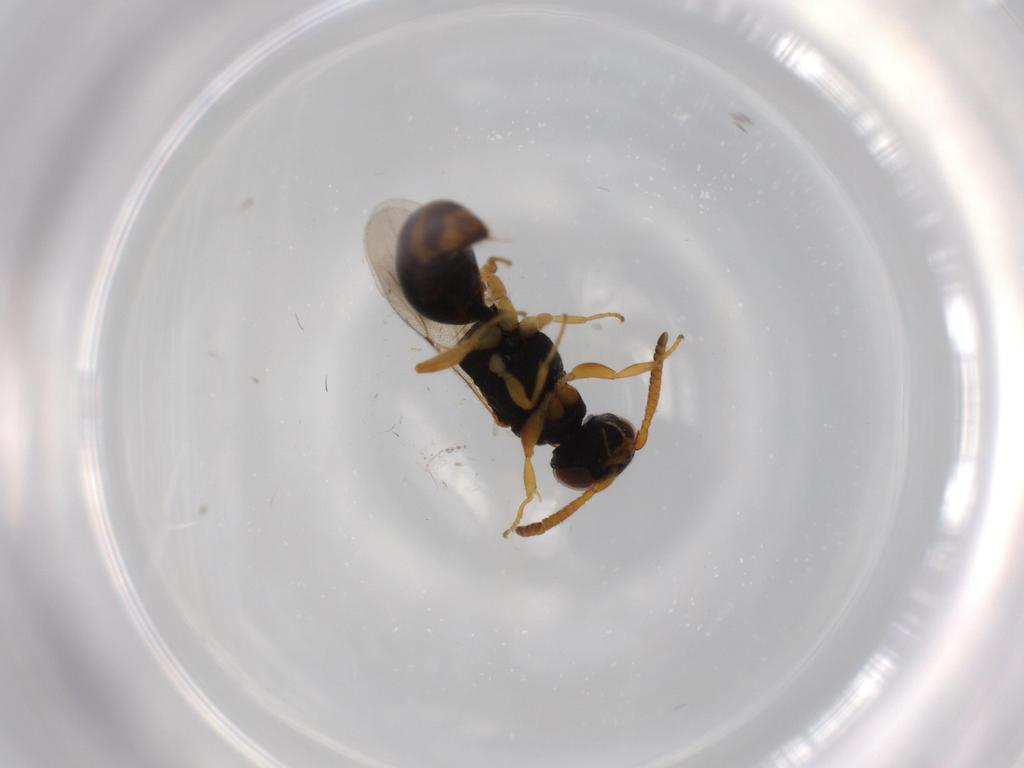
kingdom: Animalia
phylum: Arthropoda
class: Insecta
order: Hymenoptera
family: Bethylidae
